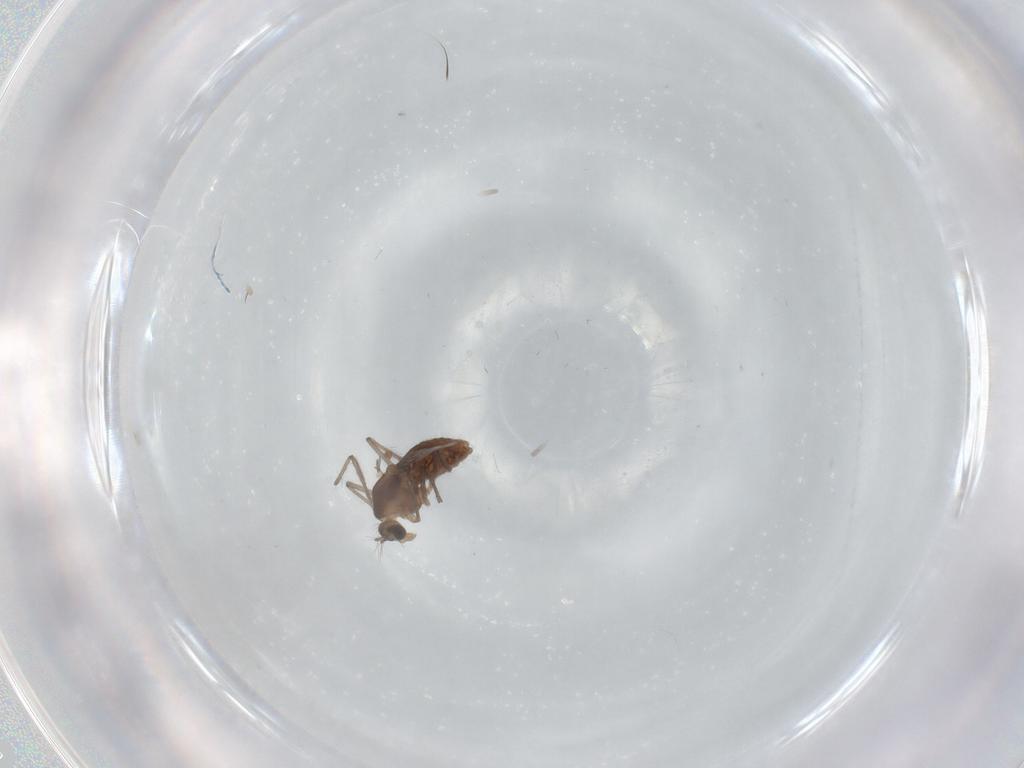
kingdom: Animalia
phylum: Arthropoda
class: Insecta
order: Diptera
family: Chironomidae
